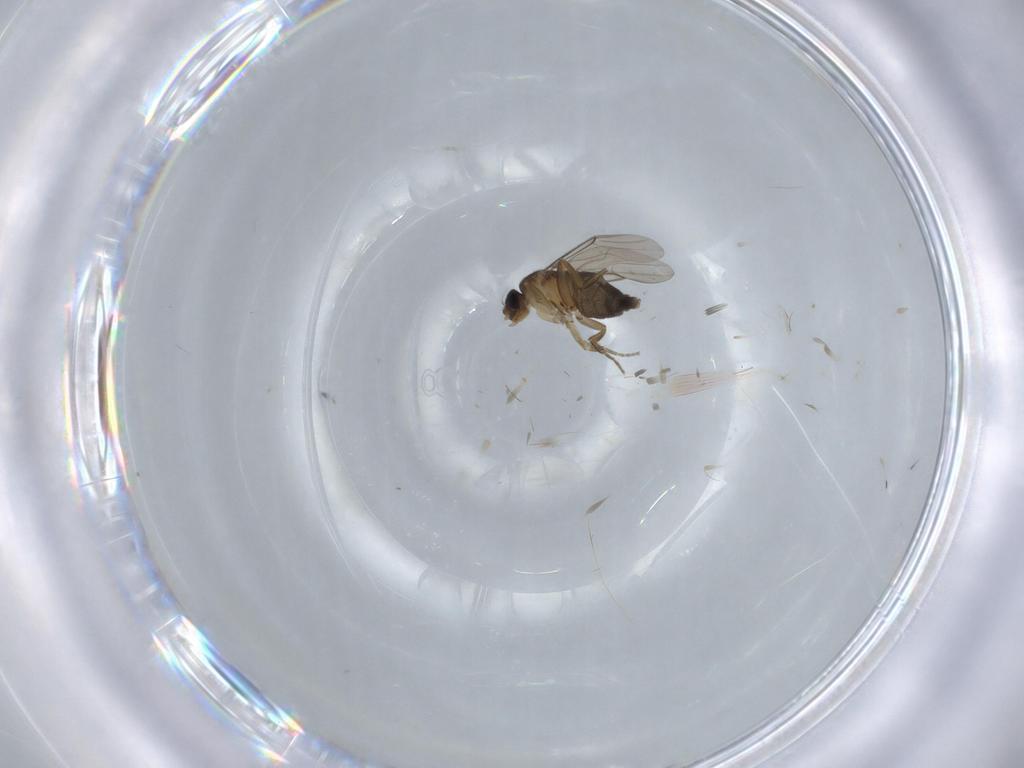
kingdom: Animalia
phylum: Arthropoda
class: Insecta
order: Diptera
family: Phoridae
